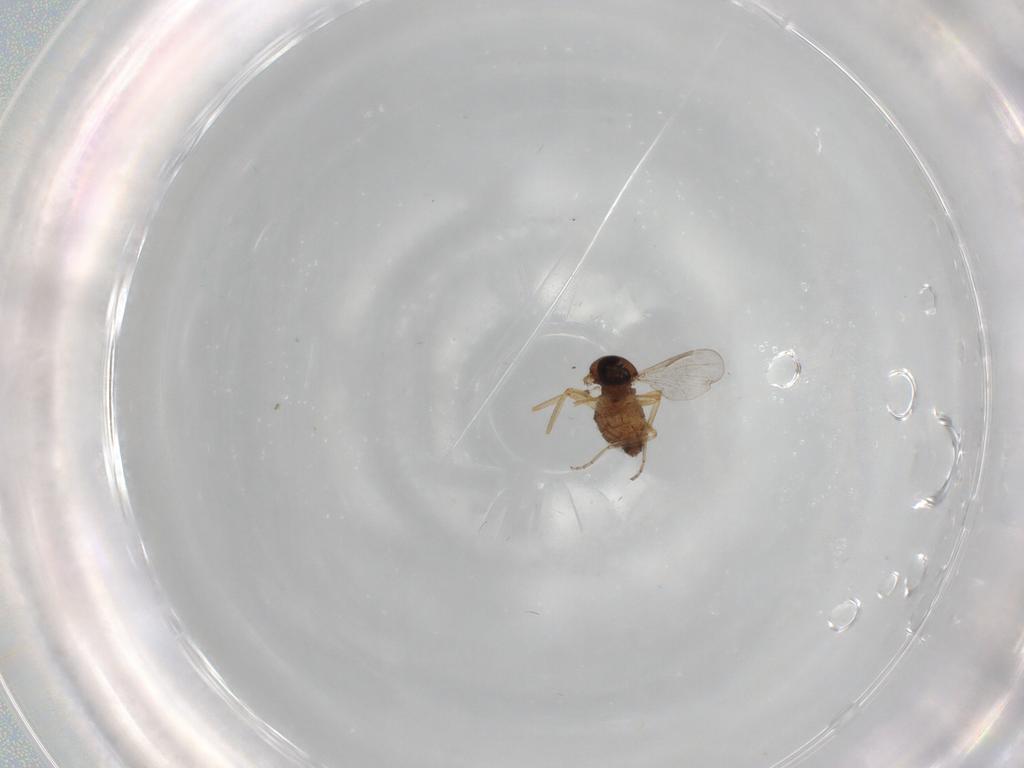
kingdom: Animalia
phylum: Arthropoda
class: Insecta
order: Diptera
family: Ceratopogonidae
